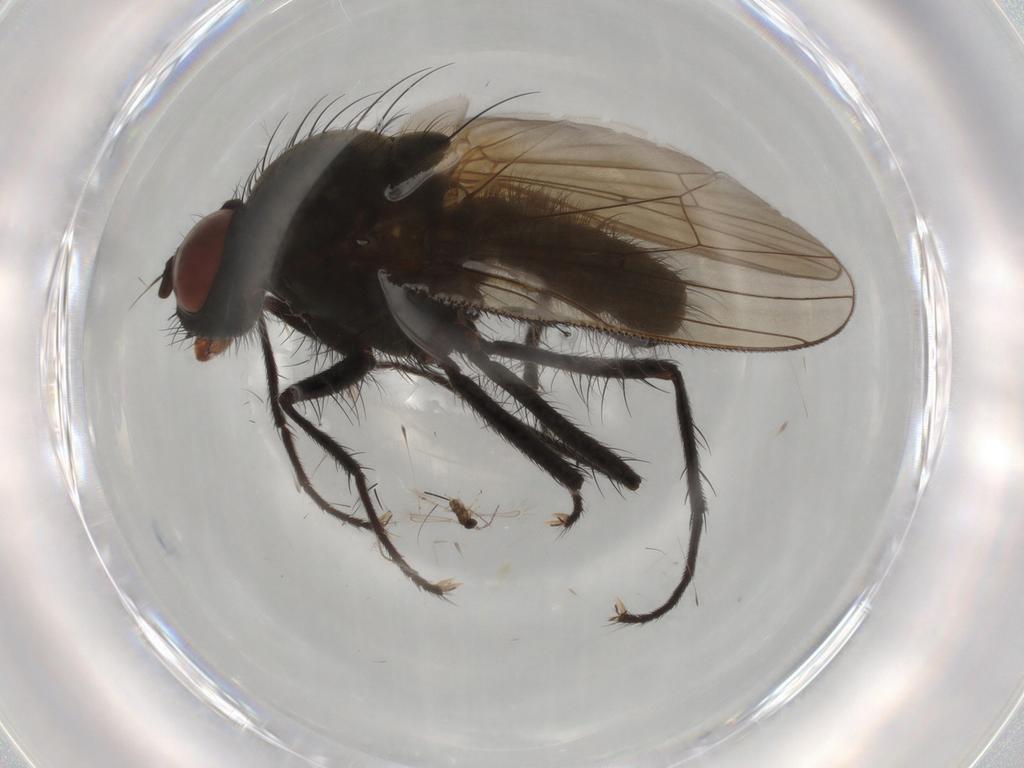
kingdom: Animalia
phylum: Arthropoda
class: Insecta
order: Diptera
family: Anthomyiidae
